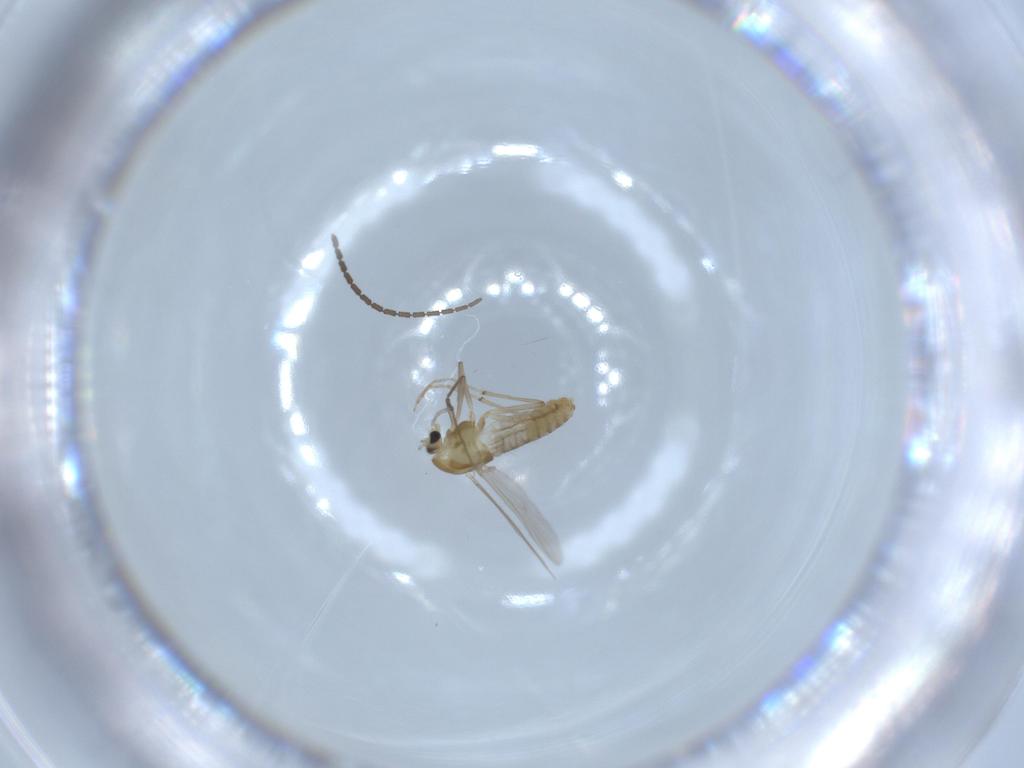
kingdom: Animalia
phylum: Arthropoda
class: Insecta
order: Diptera
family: Chironomidae
